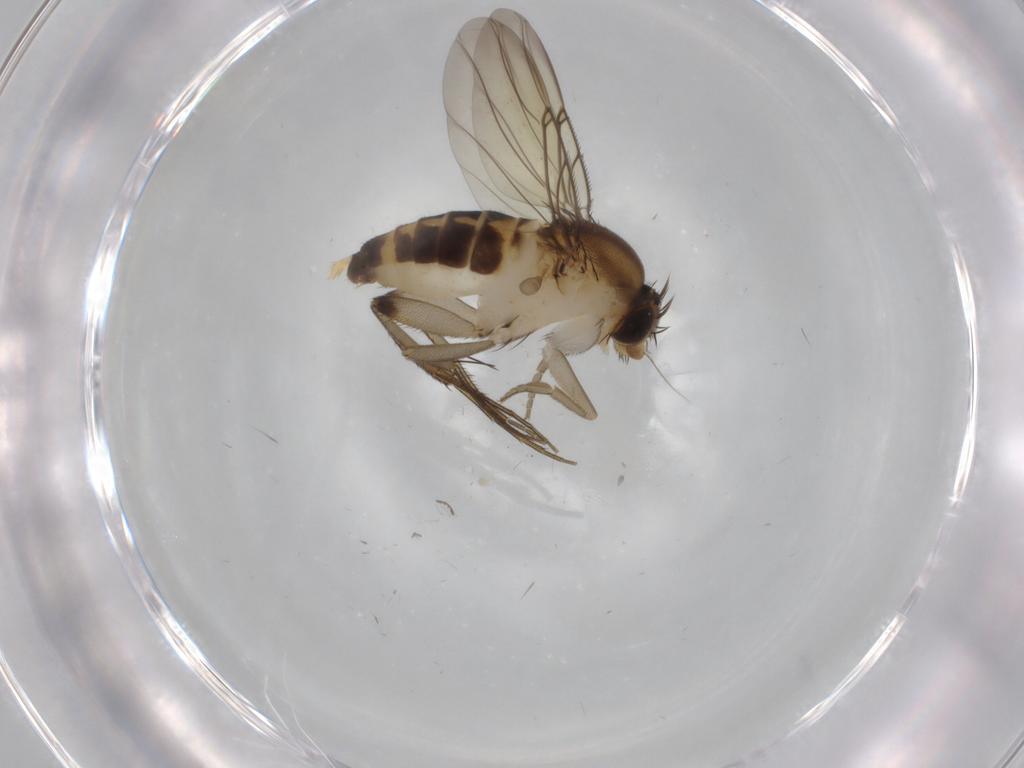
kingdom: Animalia
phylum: Arthropoda
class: Insecta
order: Diptera
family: Phoridae
